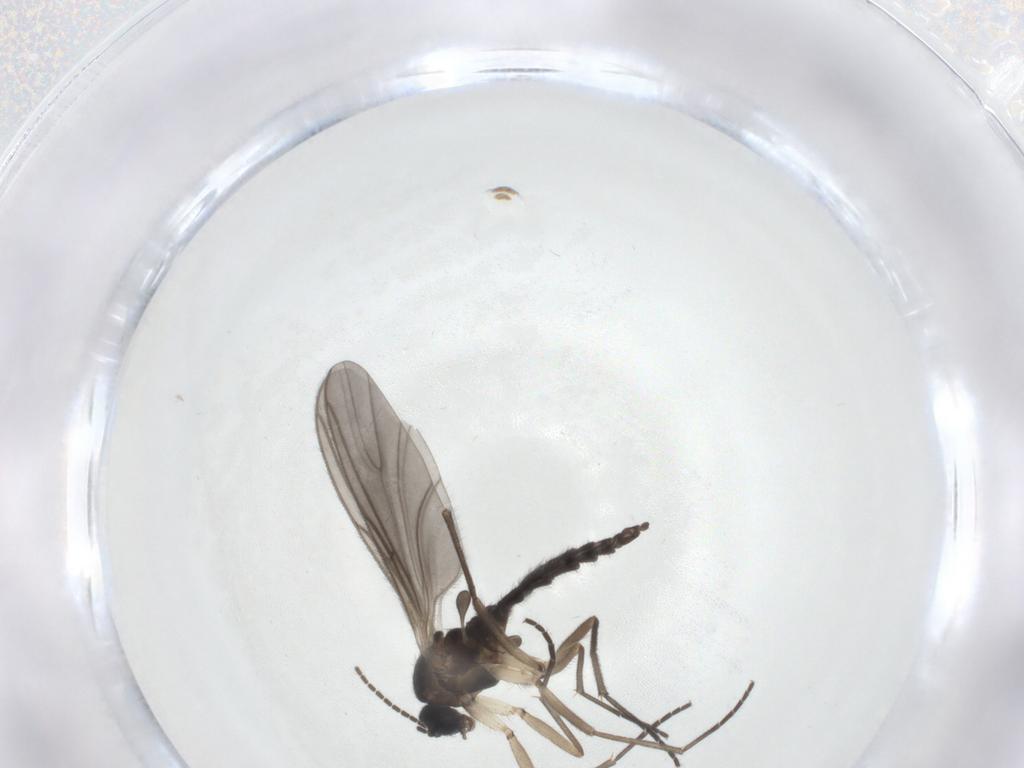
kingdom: Animalia
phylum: Arthropoda
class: Insecta
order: Diptera
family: Sciaridae
